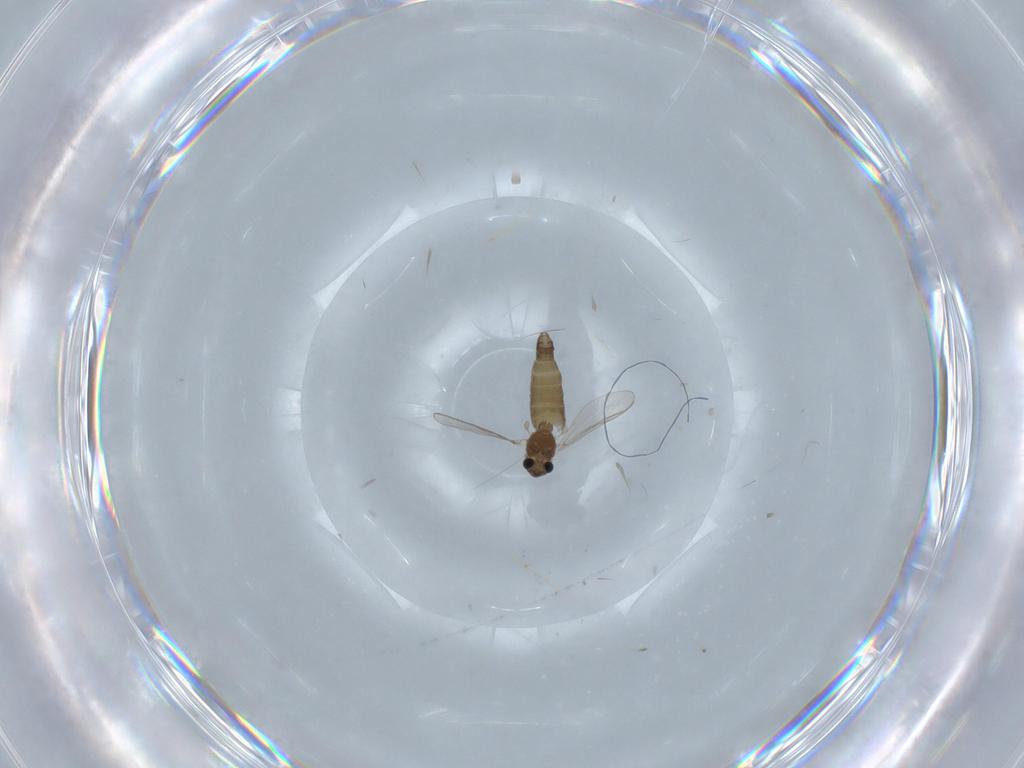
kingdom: Animalia
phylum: Arthropoda
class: Insecta
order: Diptera
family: Chironomidae
